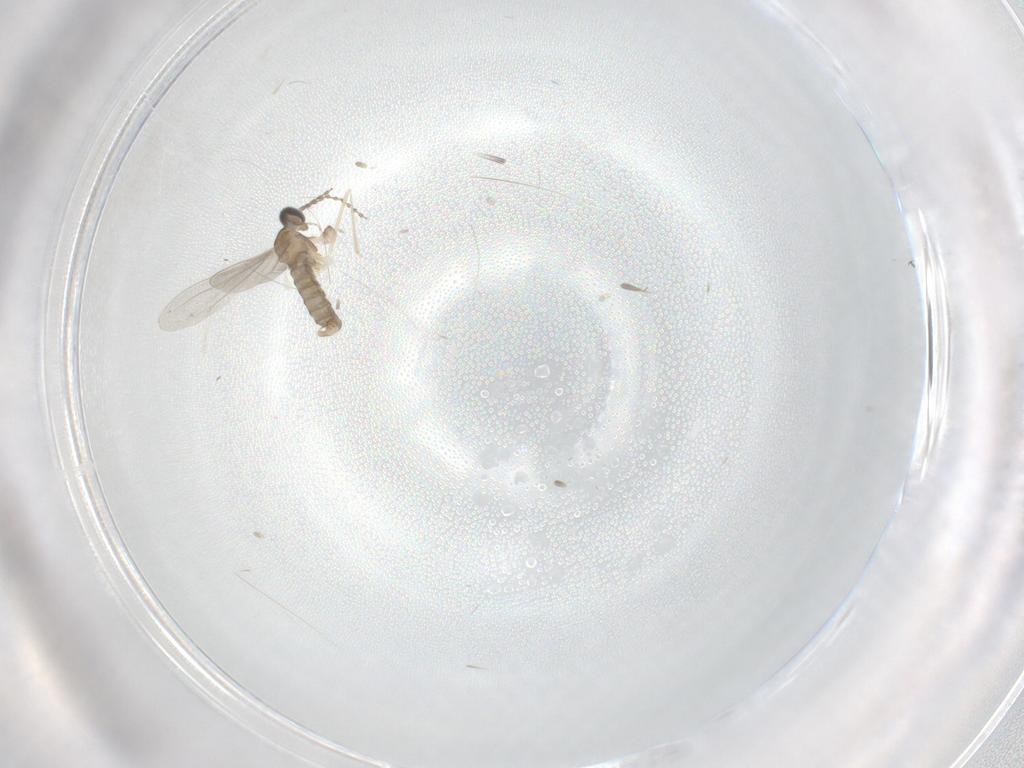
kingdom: Animalia
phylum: Arthropoda
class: Insecta
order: Diptera
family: Cecidomyiidae
